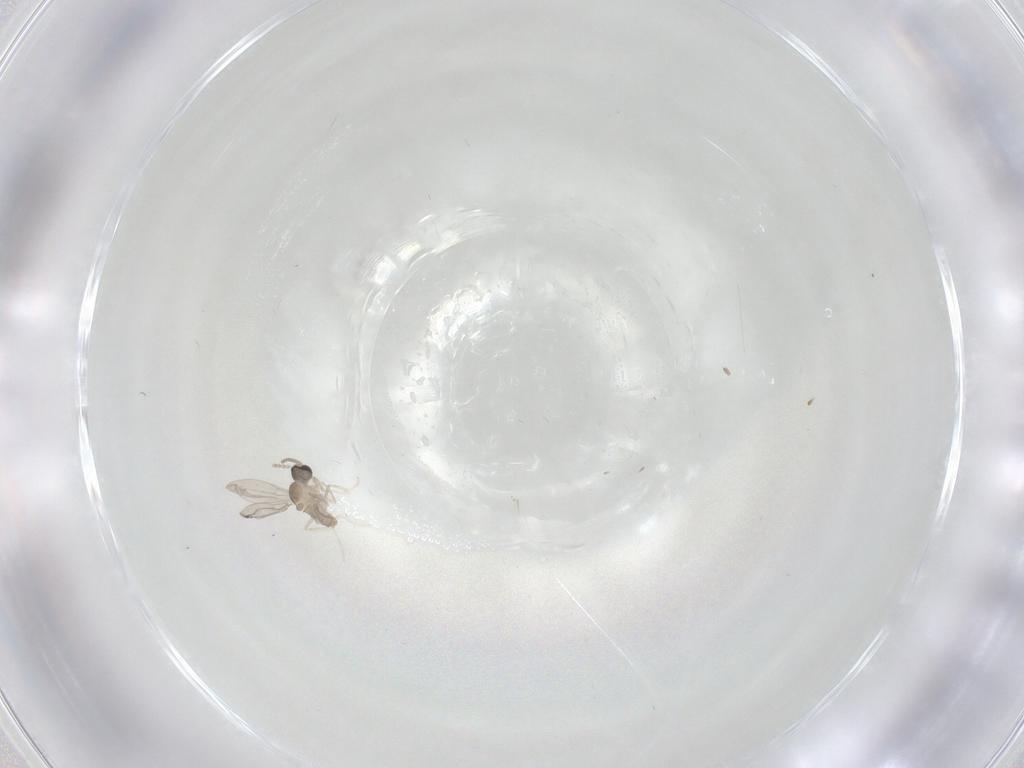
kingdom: Animalia
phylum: Arthropoda
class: Insecta
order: Diptera
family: Cecidomyiidae
